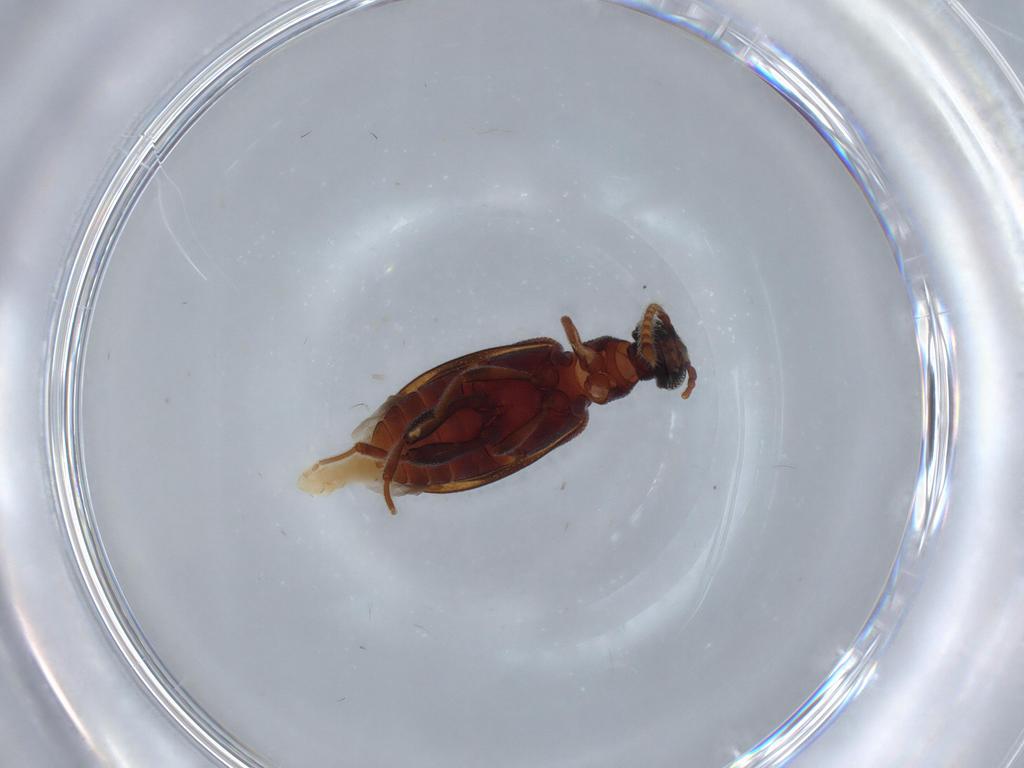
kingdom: Animalia
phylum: Arthropoda
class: Insecta
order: Coleoptera
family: Aderidae
